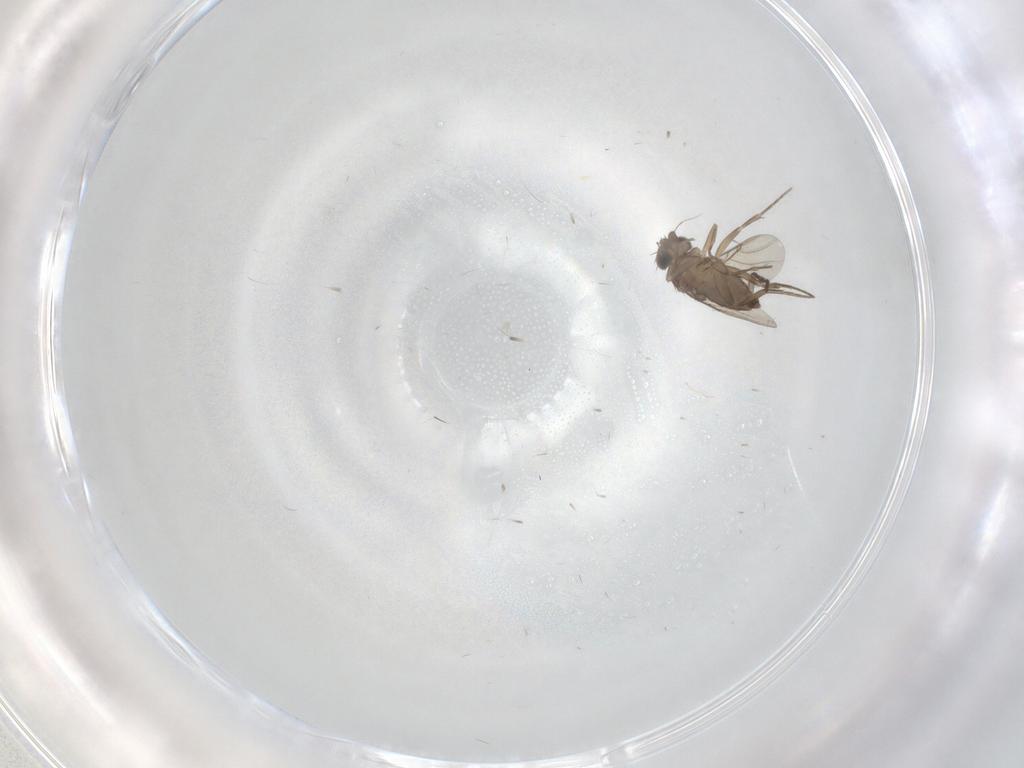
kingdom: Animalia
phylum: Arthropoda
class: Insecta
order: Diptera
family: Phoridae
